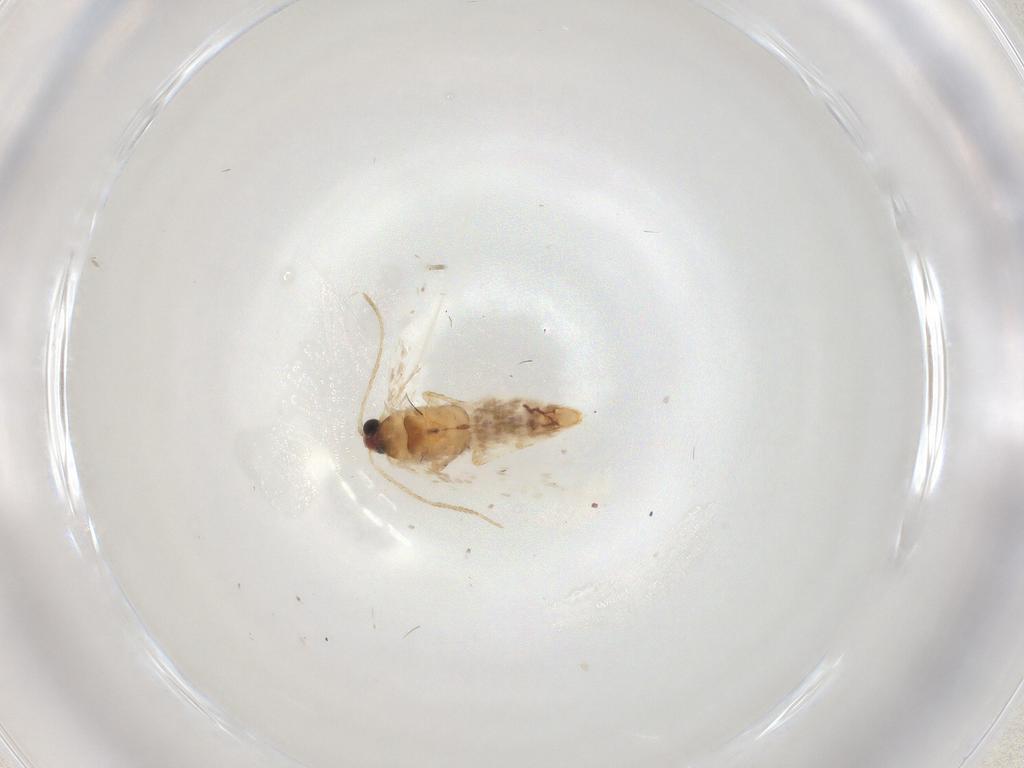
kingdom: Animalia
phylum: Arthropoda
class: Insecta
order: Lepidoptera
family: Nepticulidae
